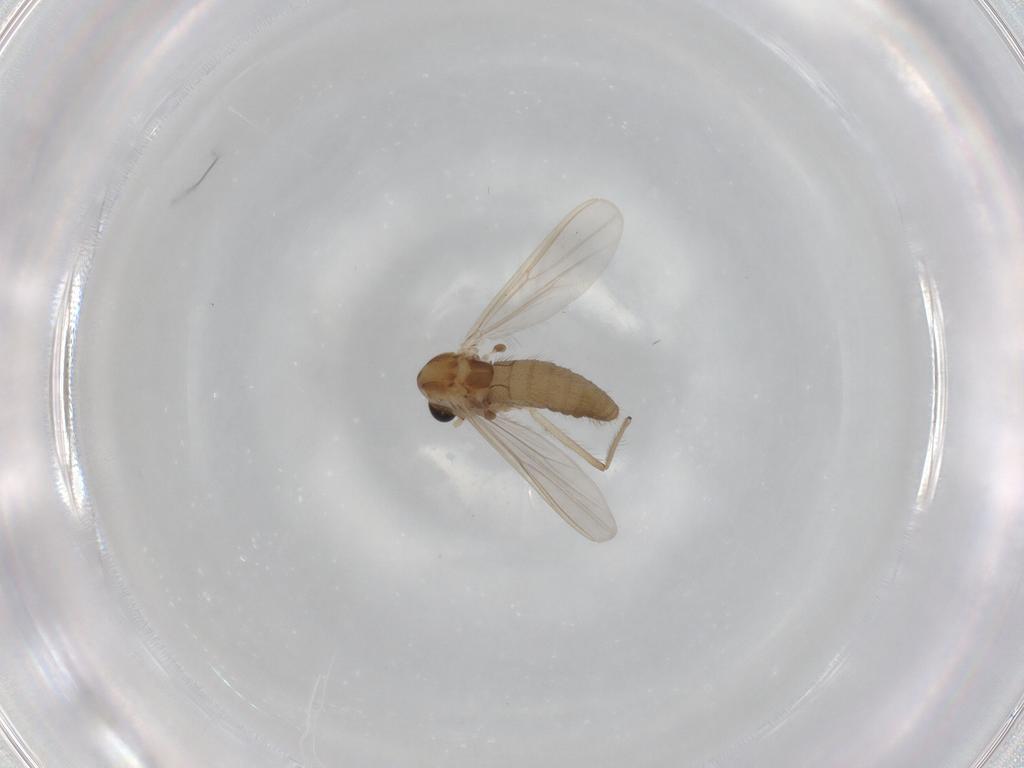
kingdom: Animalia
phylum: Arthropoda
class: Insecta
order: Diptera
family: Chironomidae
